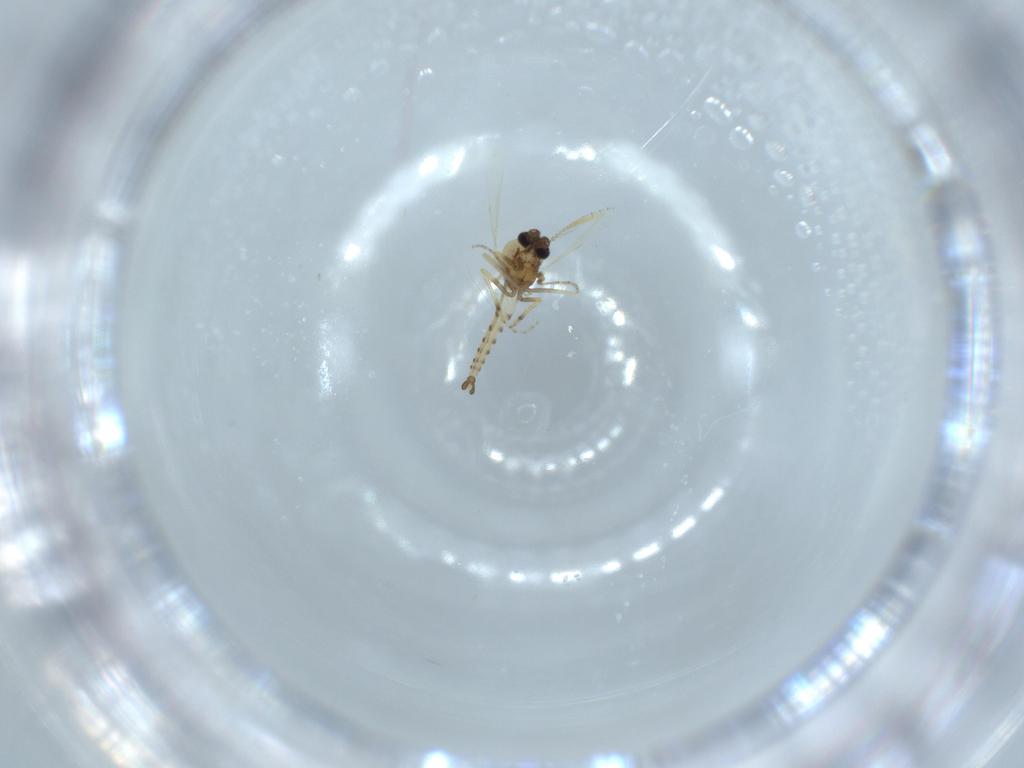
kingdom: Animalia
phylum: Arthropoda
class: Insecta
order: Diptera
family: Ceratopogonidae
